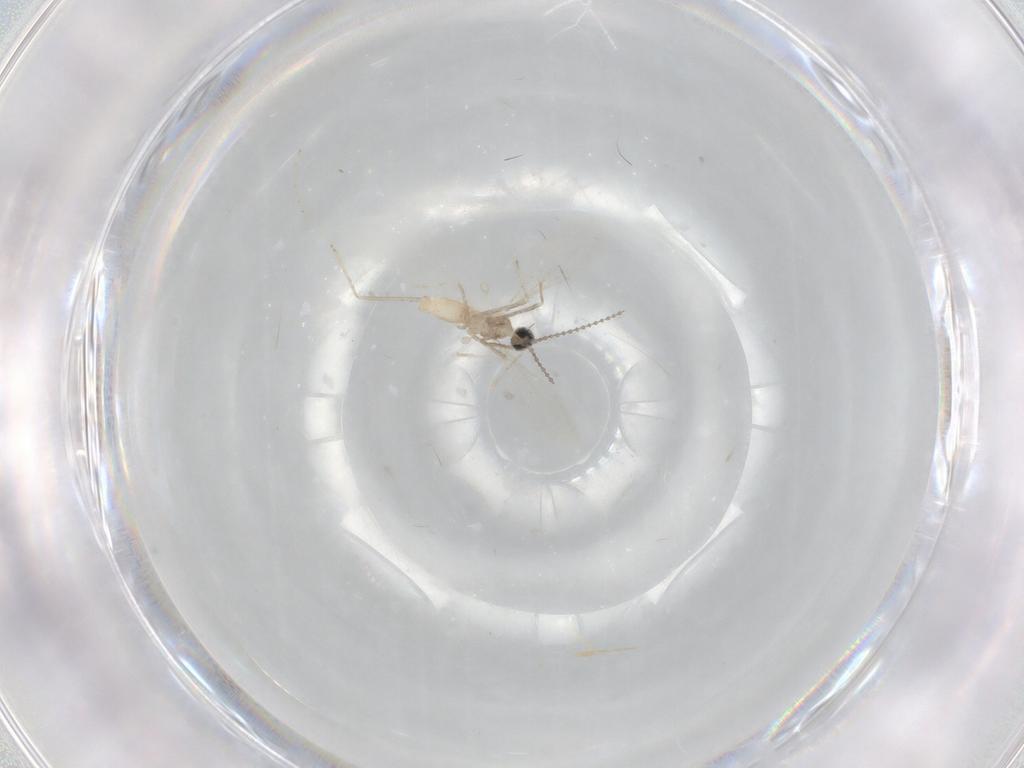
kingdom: Animalia
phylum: Arthropoda
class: Insecta
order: Diptera
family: Cecidomyiidae
